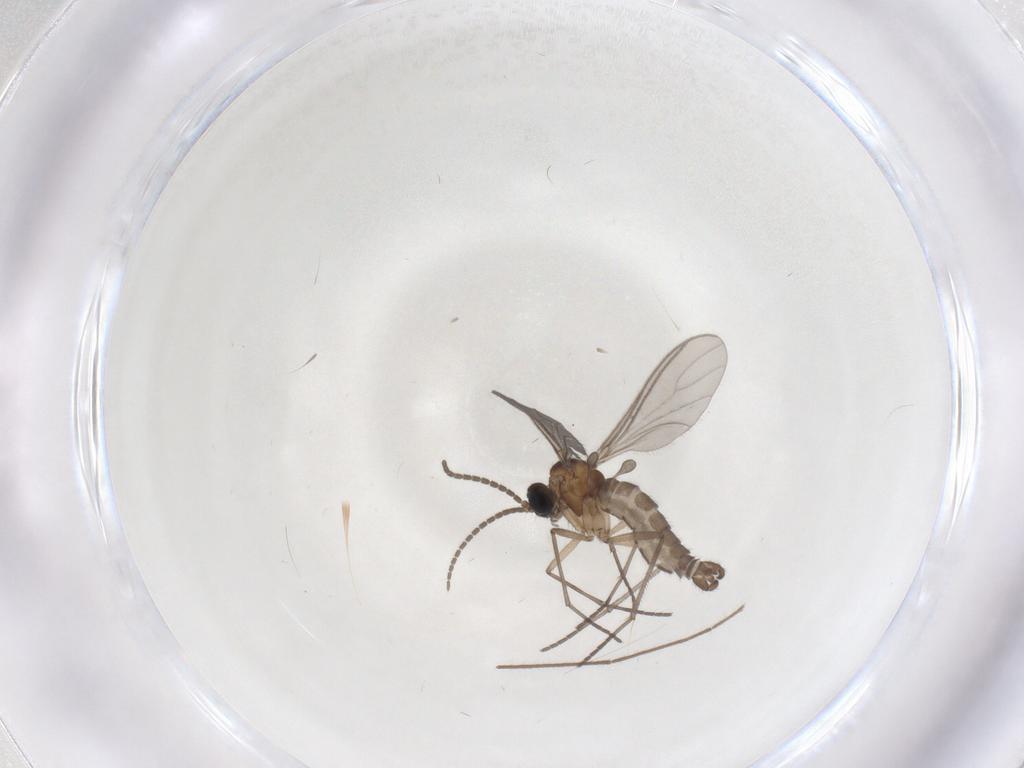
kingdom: Animalia
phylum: Arthropoda
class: Insecta
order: Diptera
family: Sciaridae
